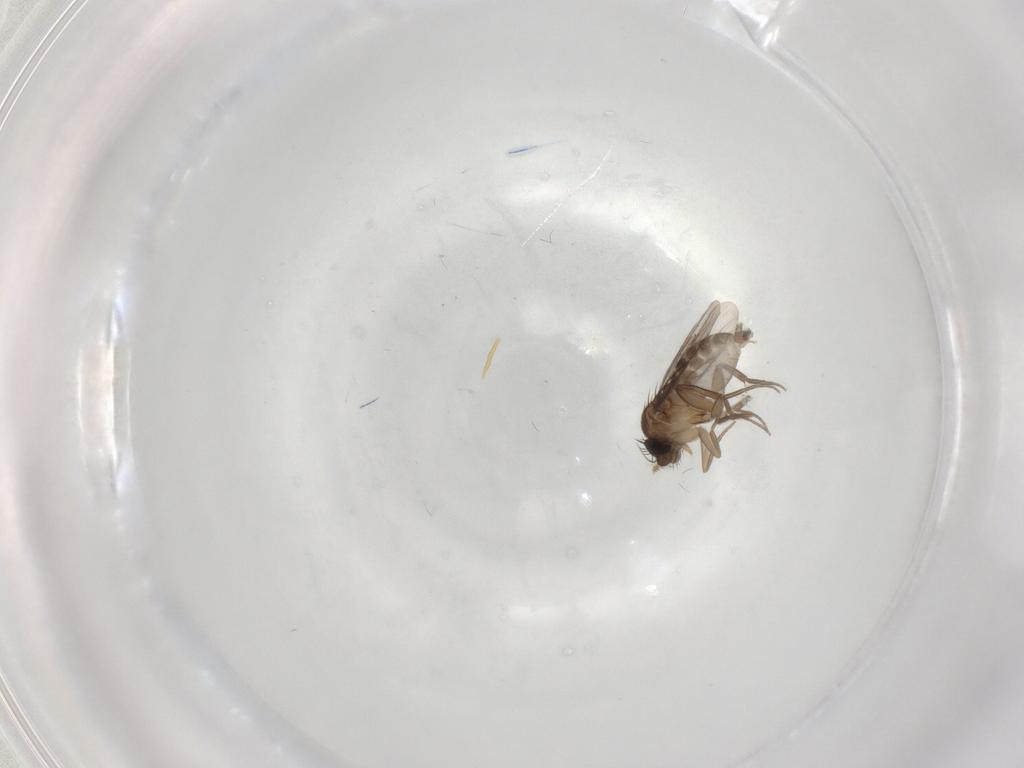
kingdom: Animalia
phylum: Arthropoda
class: Insecta
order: Diptera
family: Phoridae
